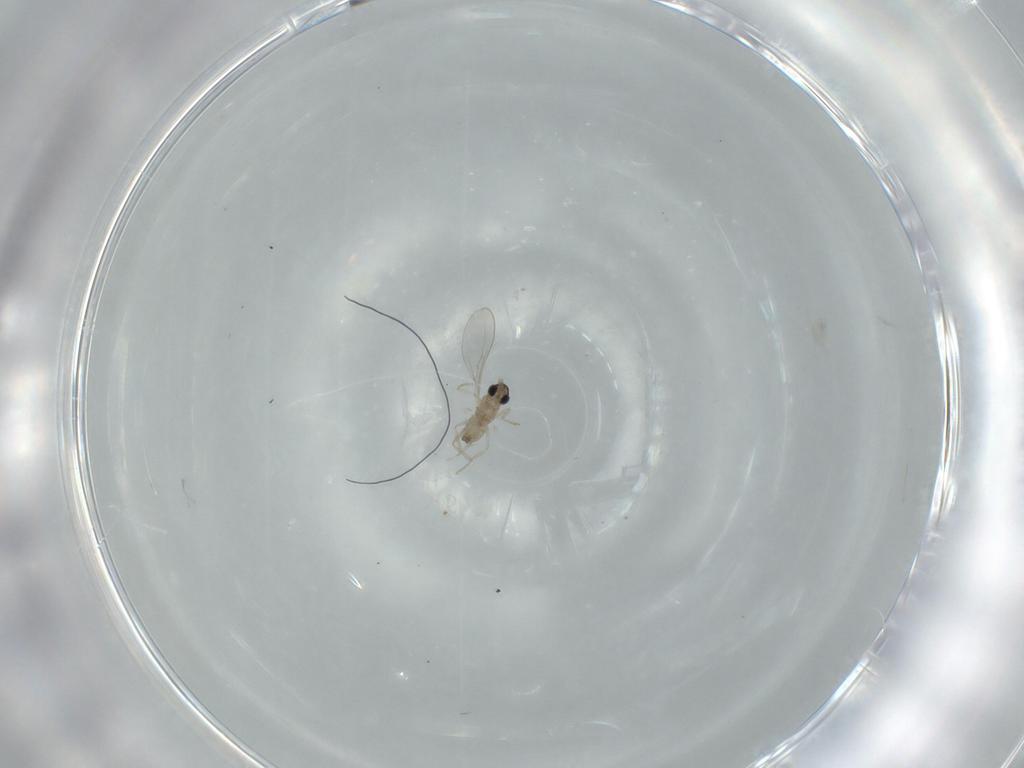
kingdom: Animalia
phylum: Arthropoda
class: Insecta
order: Diptera
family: Cecidomyiidae
